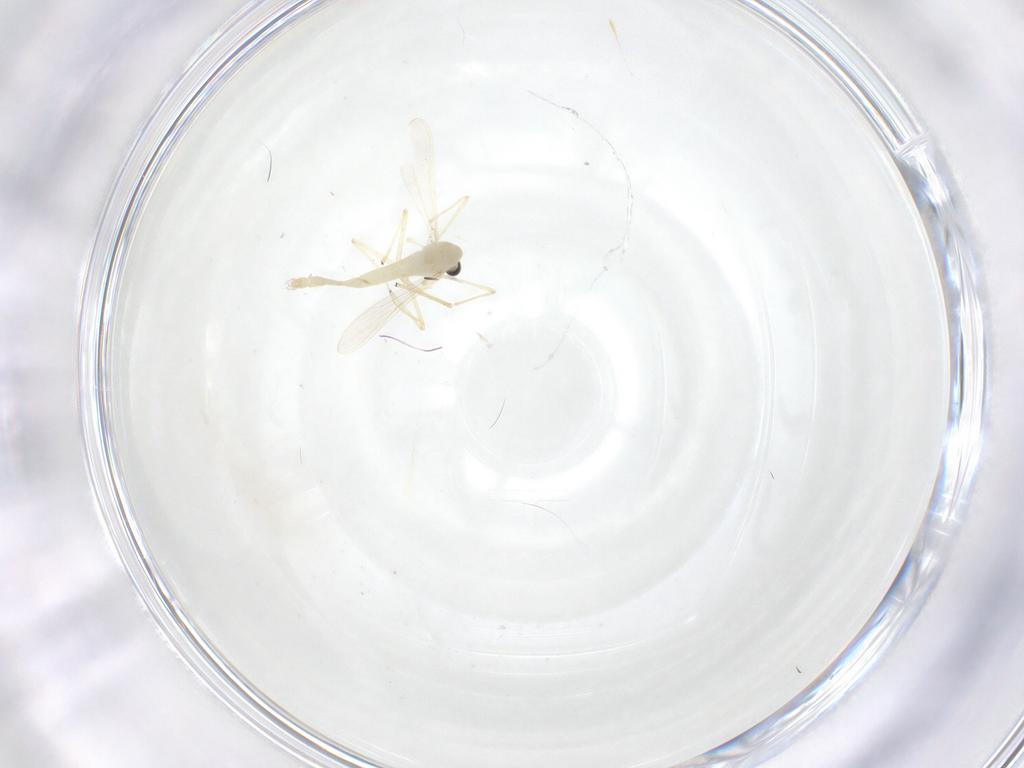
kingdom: Animalia
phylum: Arthropoda
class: Insecta
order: Diptera
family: Chironomidae
